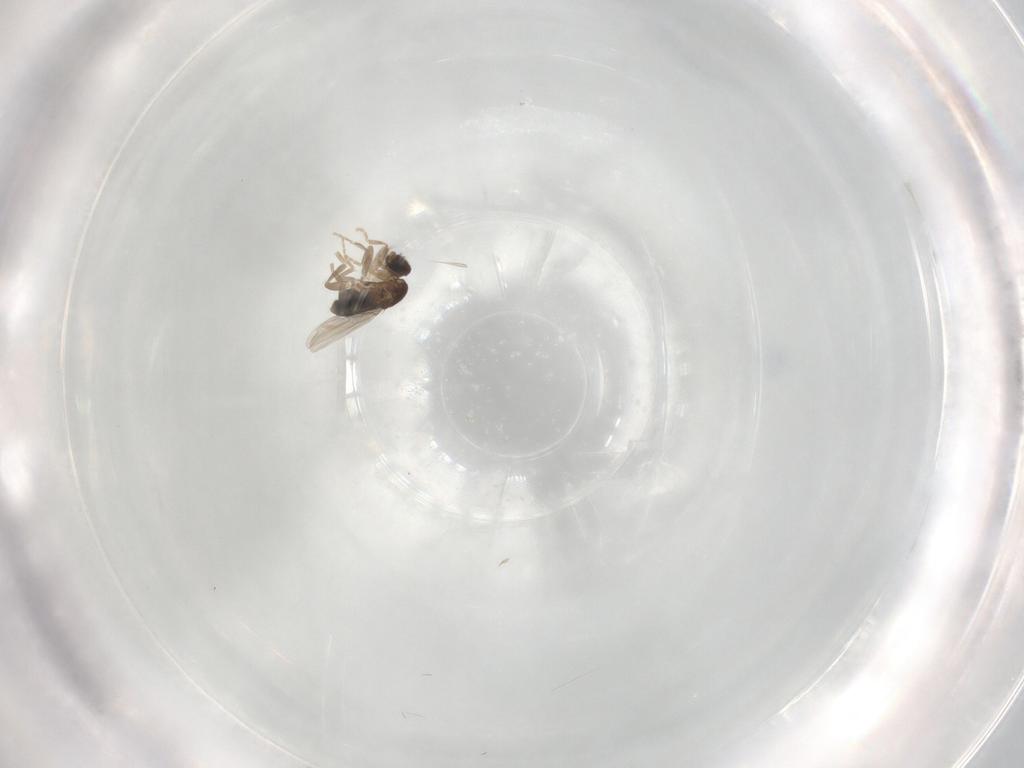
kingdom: Animalia
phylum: Arthropoda
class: Insecta
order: Diptera
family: Phoridae
